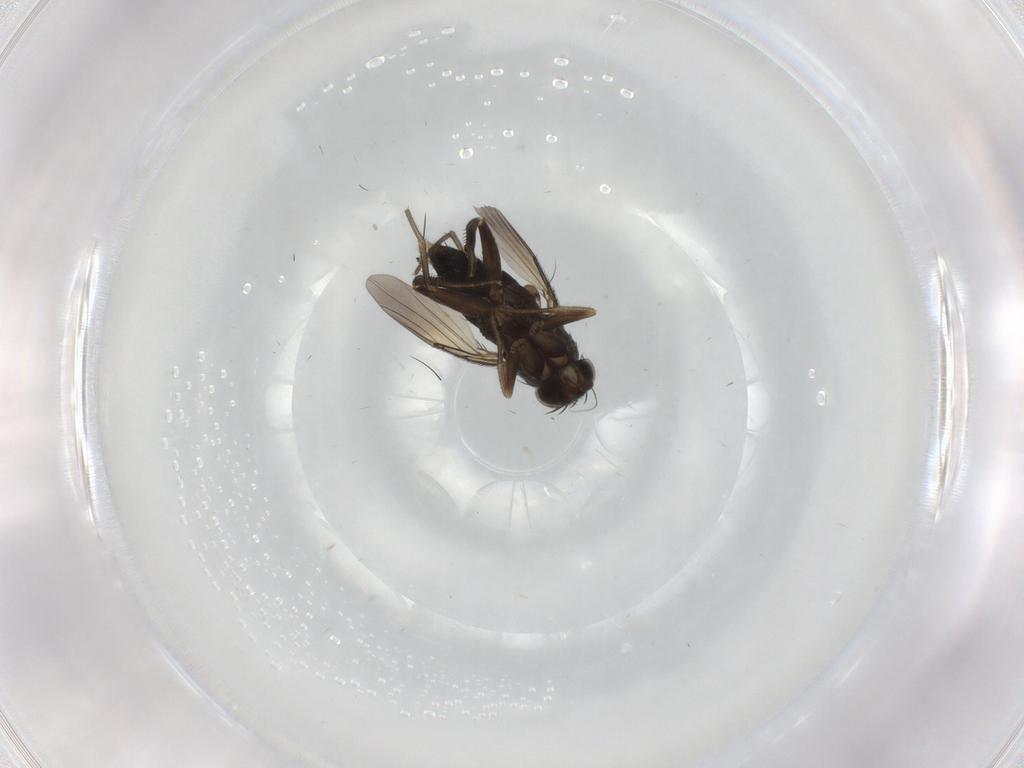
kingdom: Animalia
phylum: Arthropoda
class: Insecta
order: Diptera
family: Phoridae
